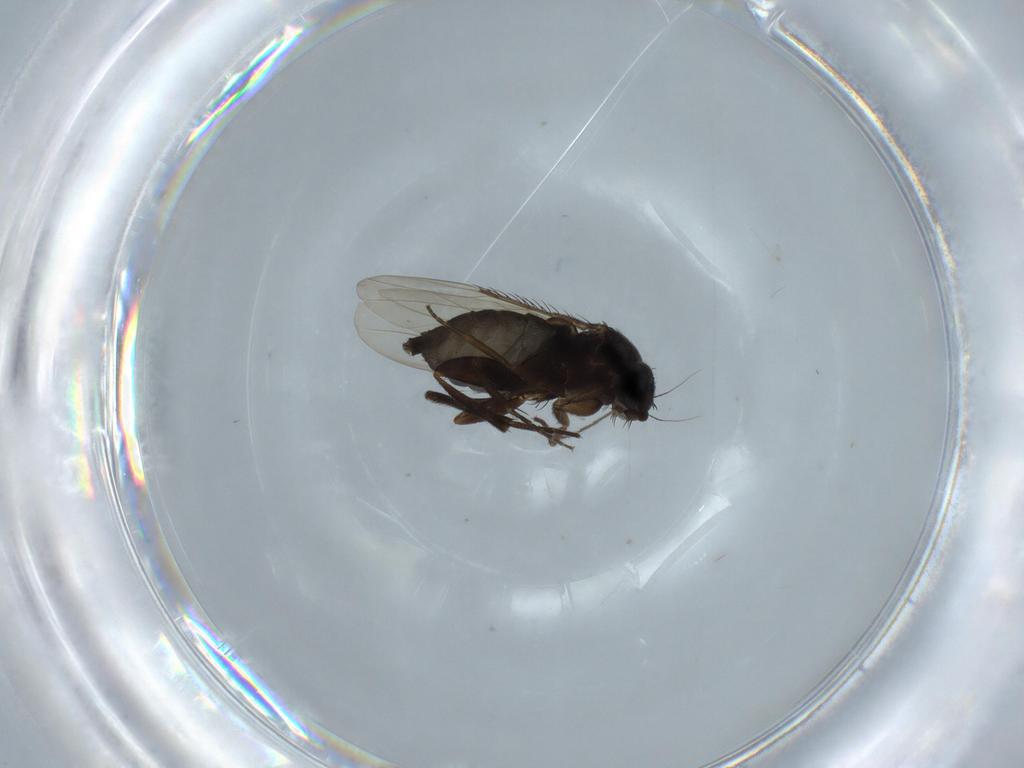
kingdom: Animalia
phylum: Arthropoda
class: Insecta
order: Diptera
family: Phoridae
